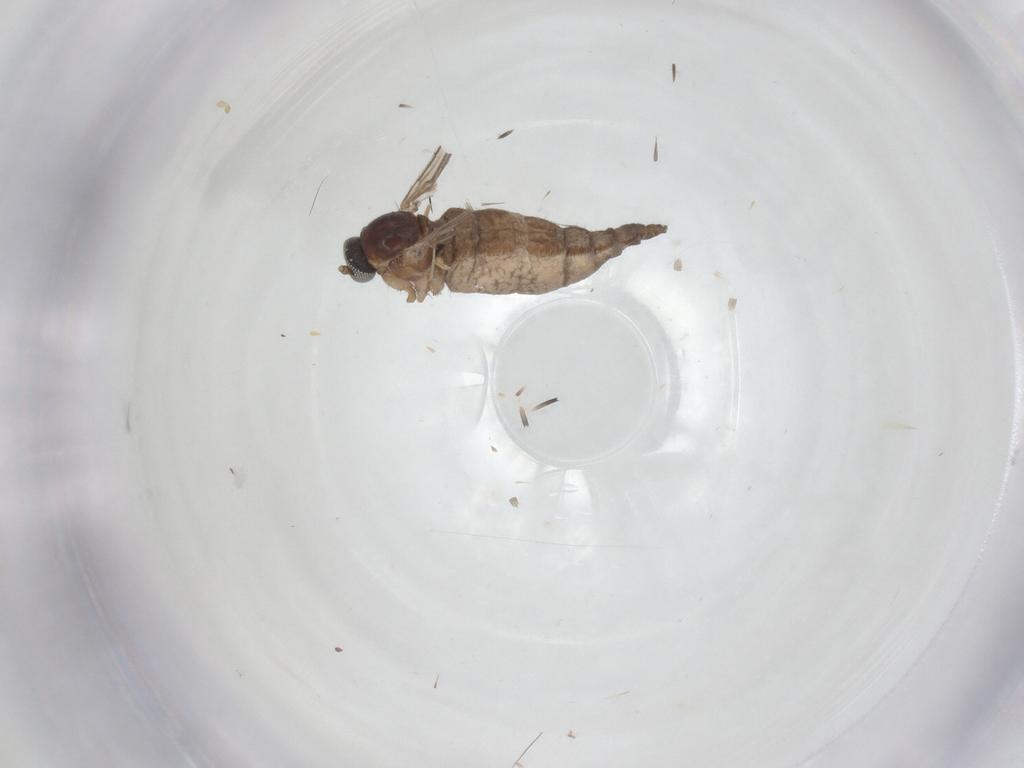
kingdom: Animalia
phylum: Arthropoda
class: Insecta
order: Diptera
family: Sciaridae
